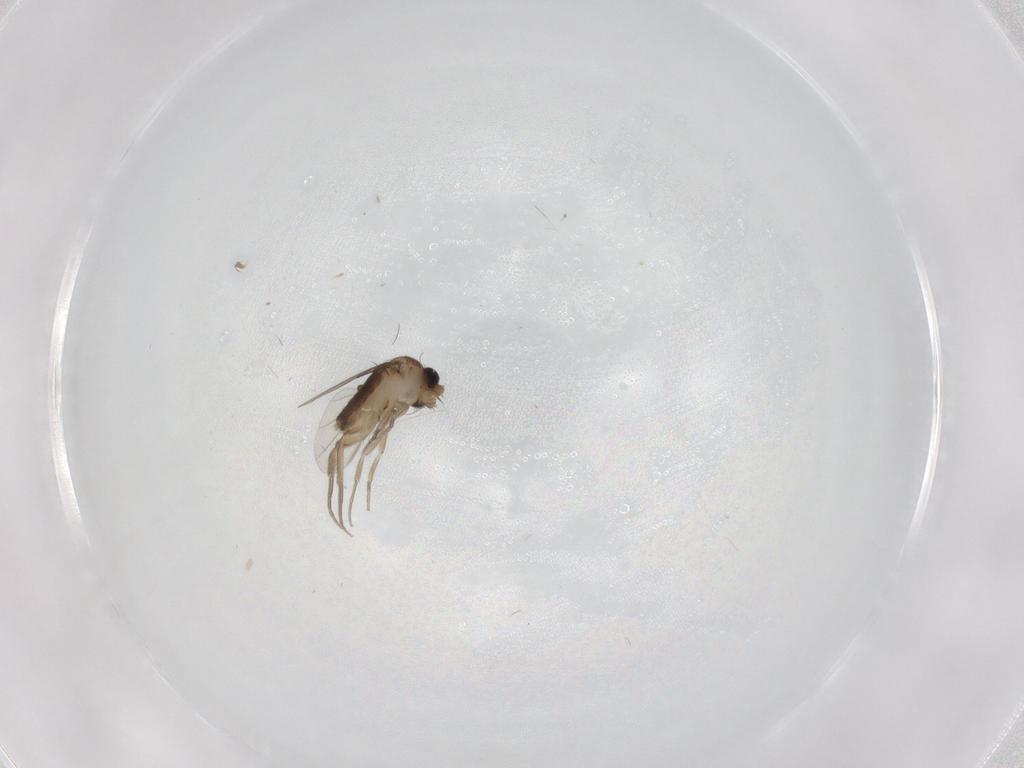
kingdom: Animalia
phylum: Arthropoda
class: Insecta
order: Diptera
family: Phoridae
